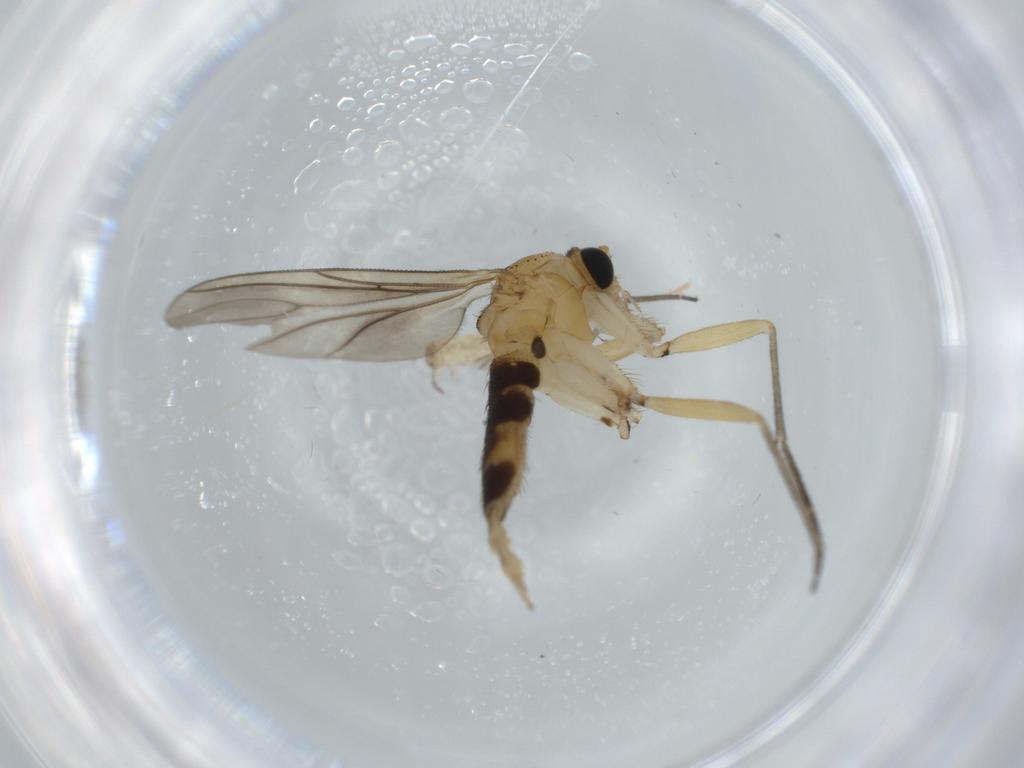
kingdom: Animalia
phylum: Arthropoda
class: Insecta
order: Diptera
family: Sciaridae
